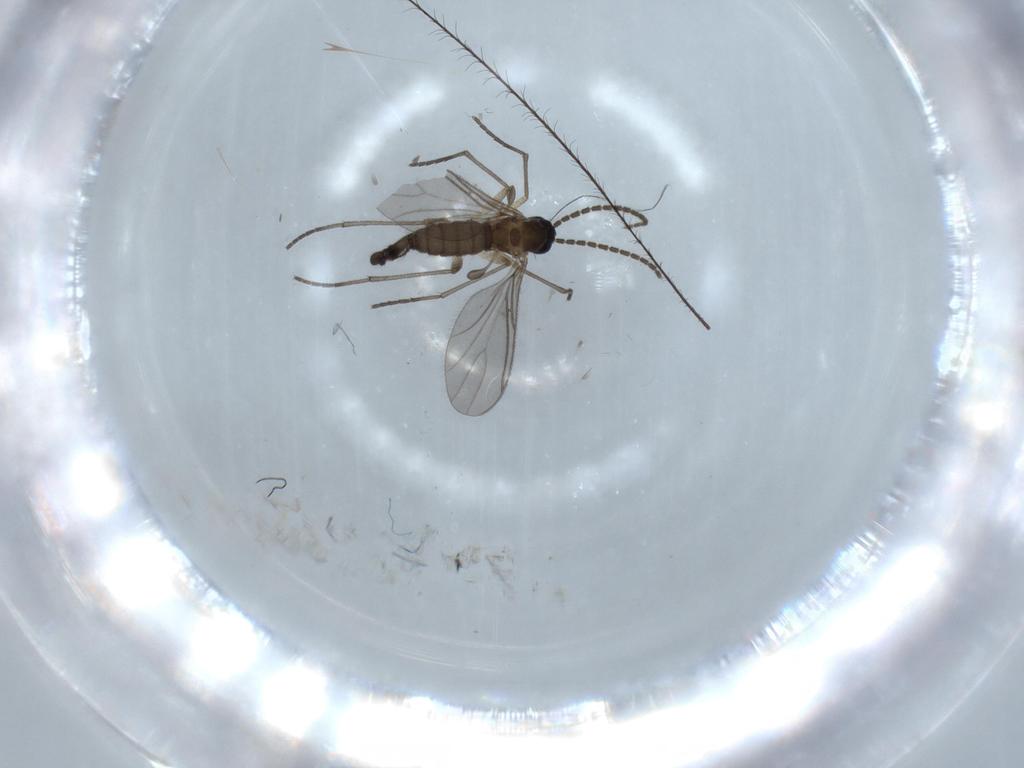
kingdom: Animalia
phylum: Arthropoda
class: Insecta
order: Diptera
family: Sciaridae
